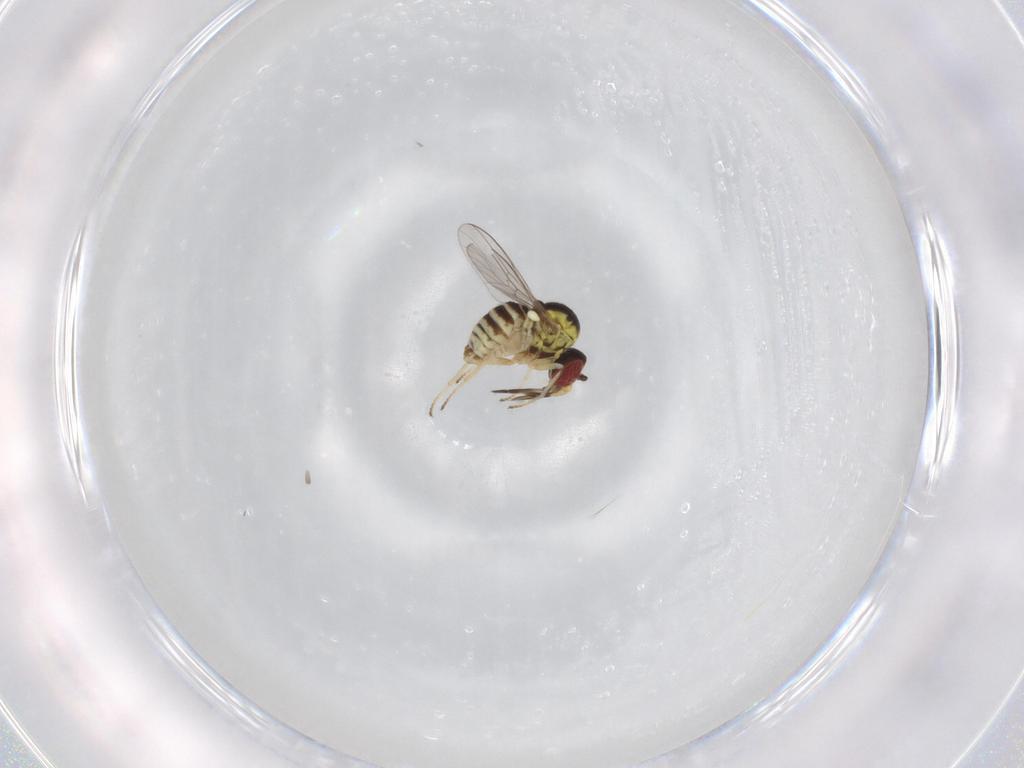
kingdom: Animalia
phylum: Arthropoda
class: Insecta
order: Diptera
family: Bombyliidae
